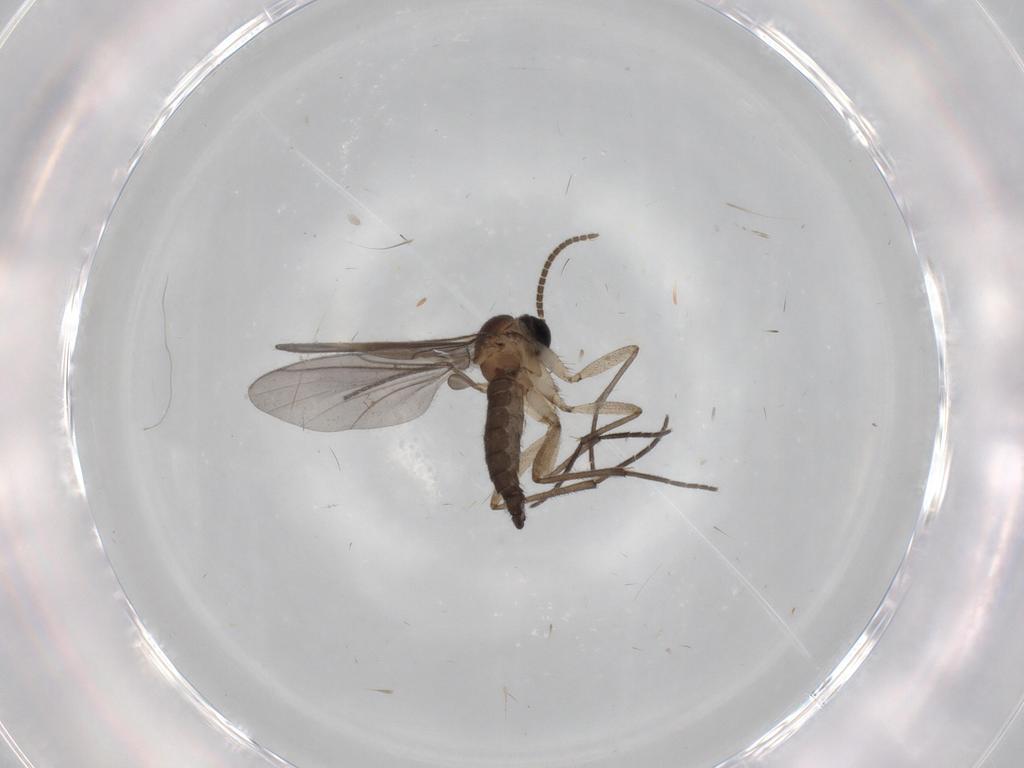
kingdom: Animalia
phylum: Arthropoda
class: Insecta
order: Diptera
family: Sciaridae
